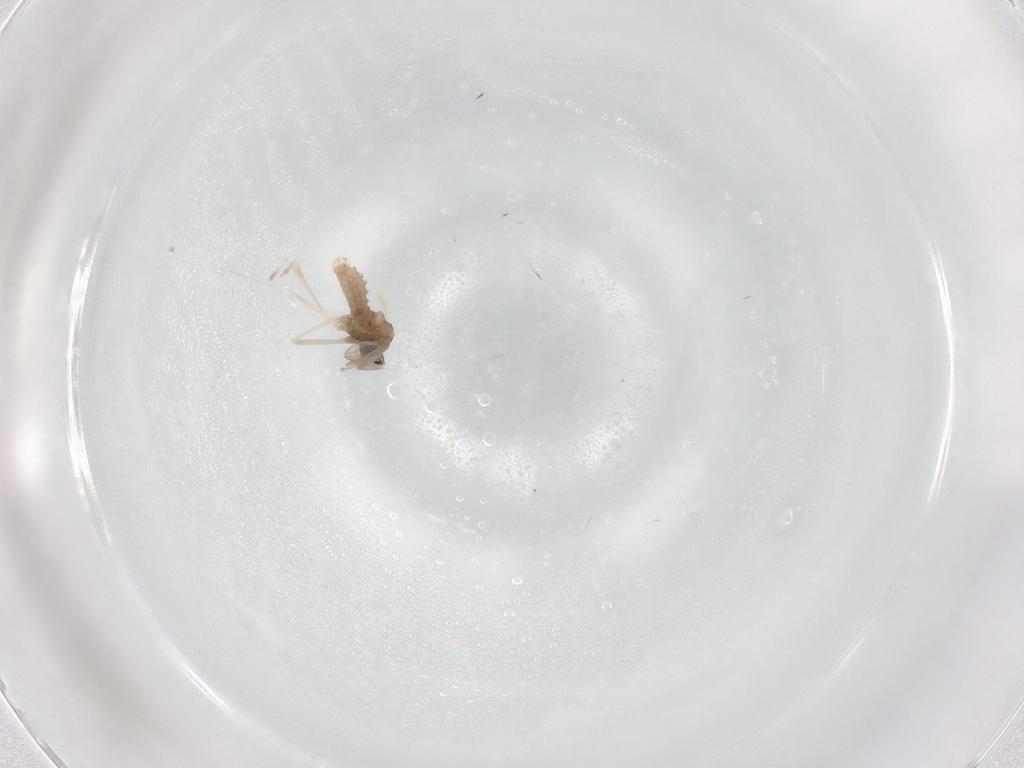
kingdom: Animalia
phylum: Arthropoda
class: Insecta
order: Diptera
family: Cecidomyiidae
